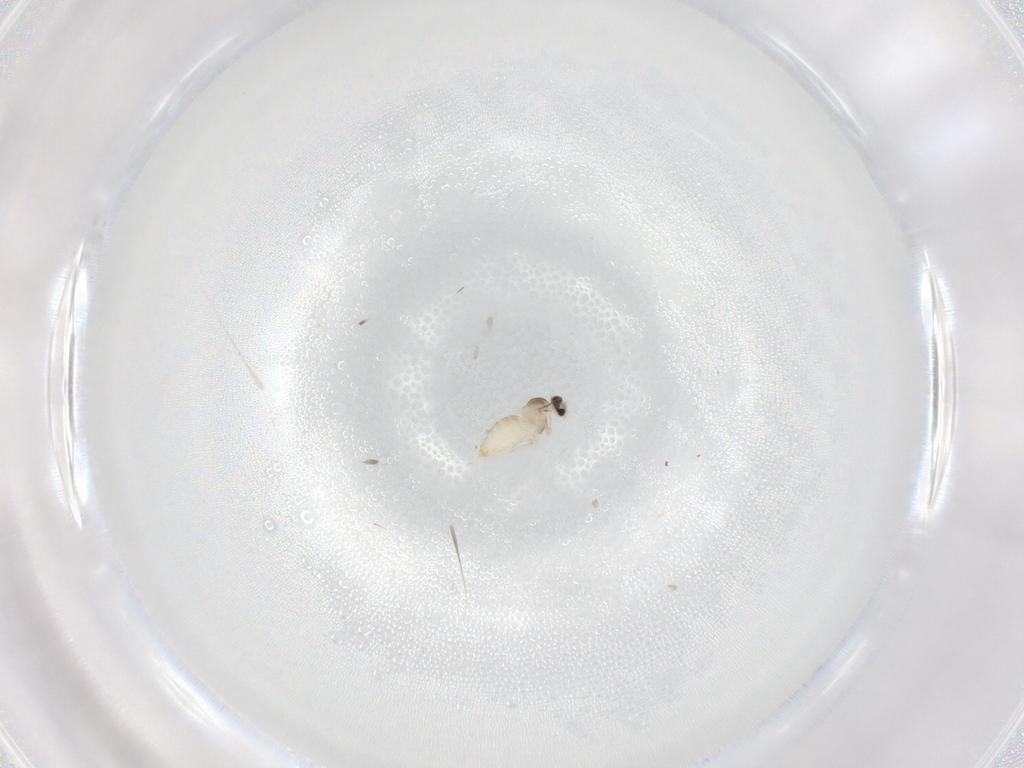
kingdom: Animalia
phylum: Arthropoda
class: Insecta
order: Diptera
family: Cecidomyiidae
